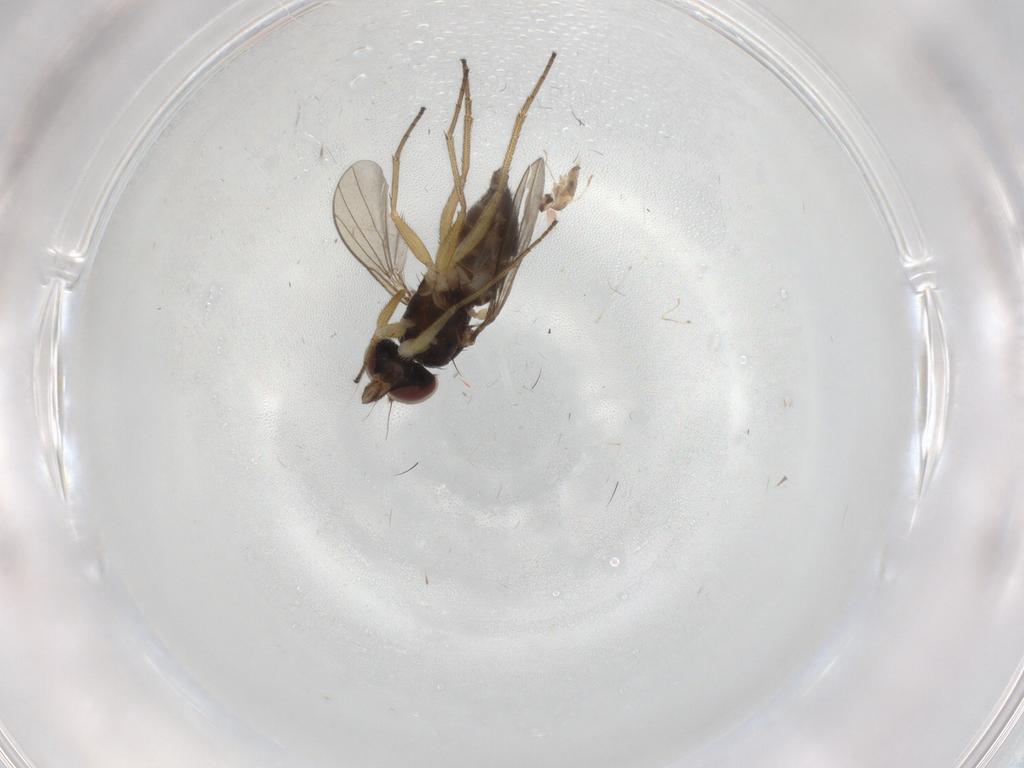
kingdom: Animalia
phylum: Arthropoda
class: Insecta
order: Diptera
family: Dolichopodidae
